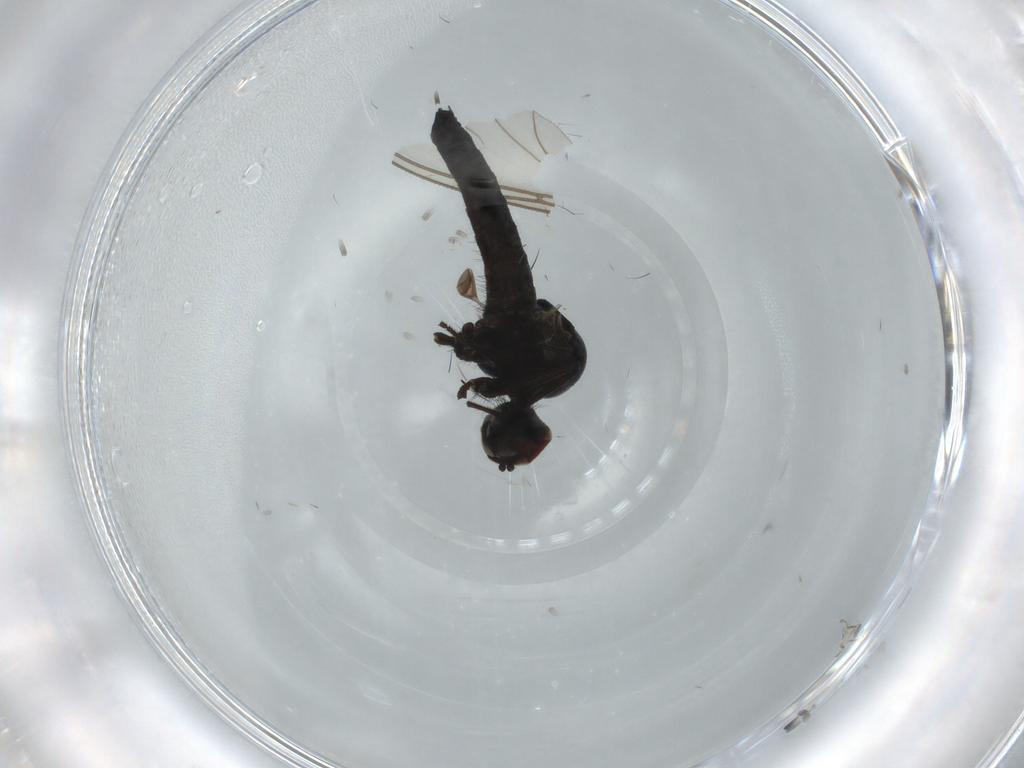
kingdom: Animalia
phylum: Arthropoda
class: Insecta
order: Diptera
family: Hybotidae
